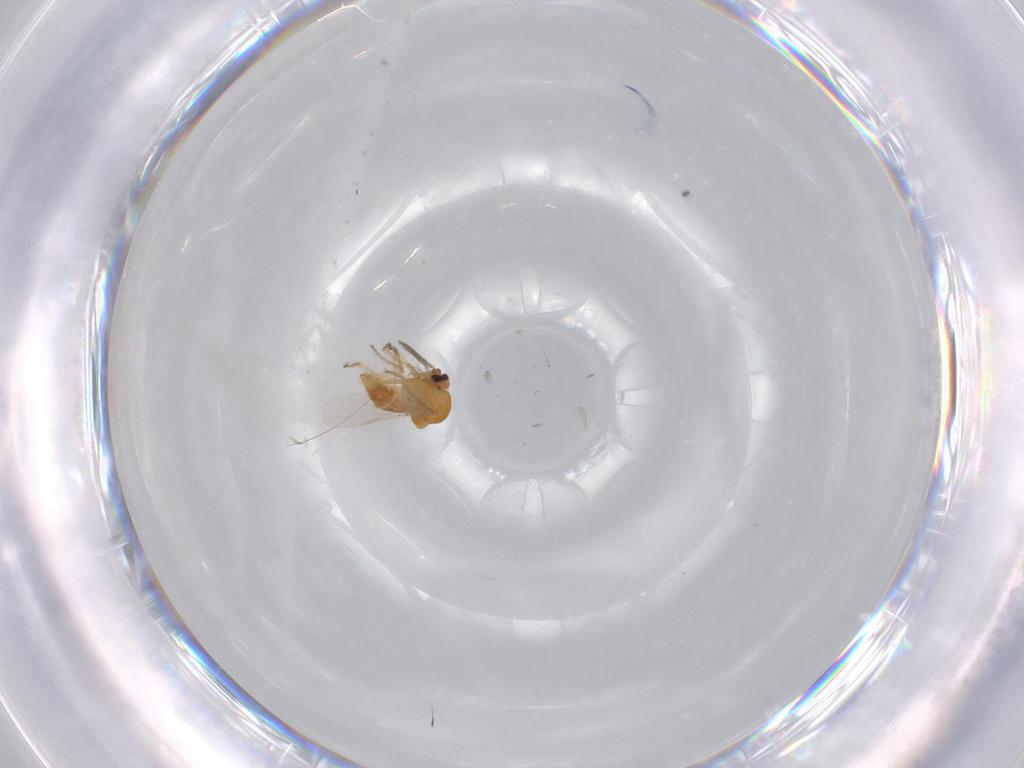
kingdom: Animalia
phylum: Arthropoda
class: Insecta
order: Diptera
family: Ceratopogonidae
